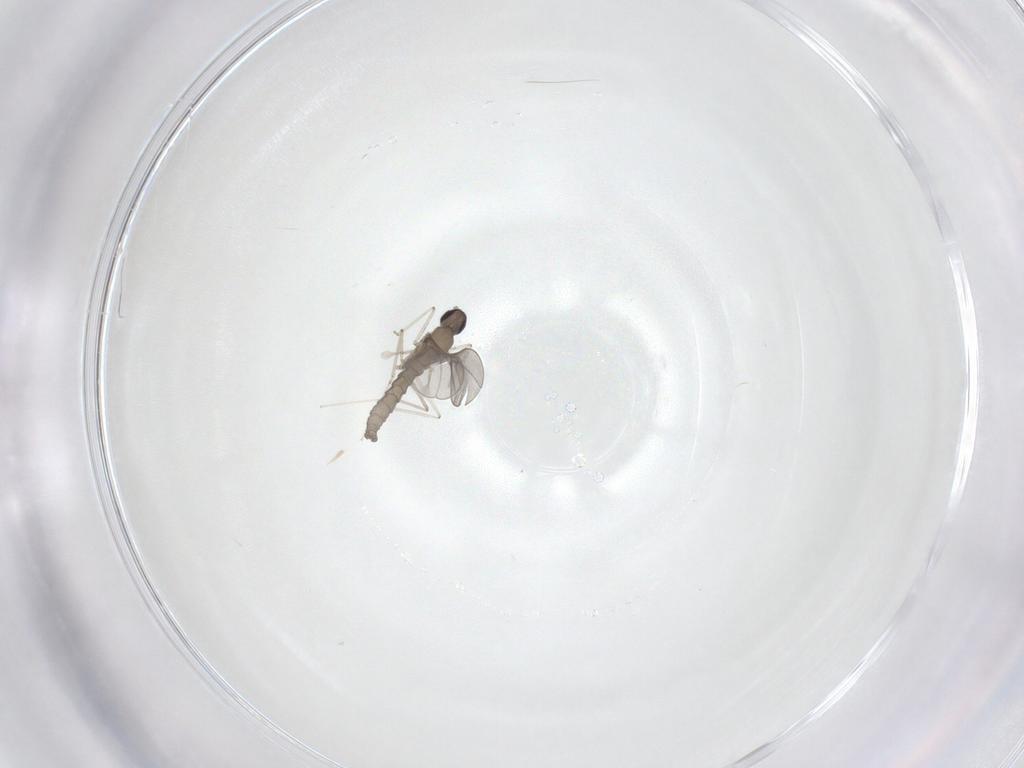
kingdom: Animalia
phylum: Arthropoda
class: Insecta
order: Diptera
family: Cecidomyiidae
